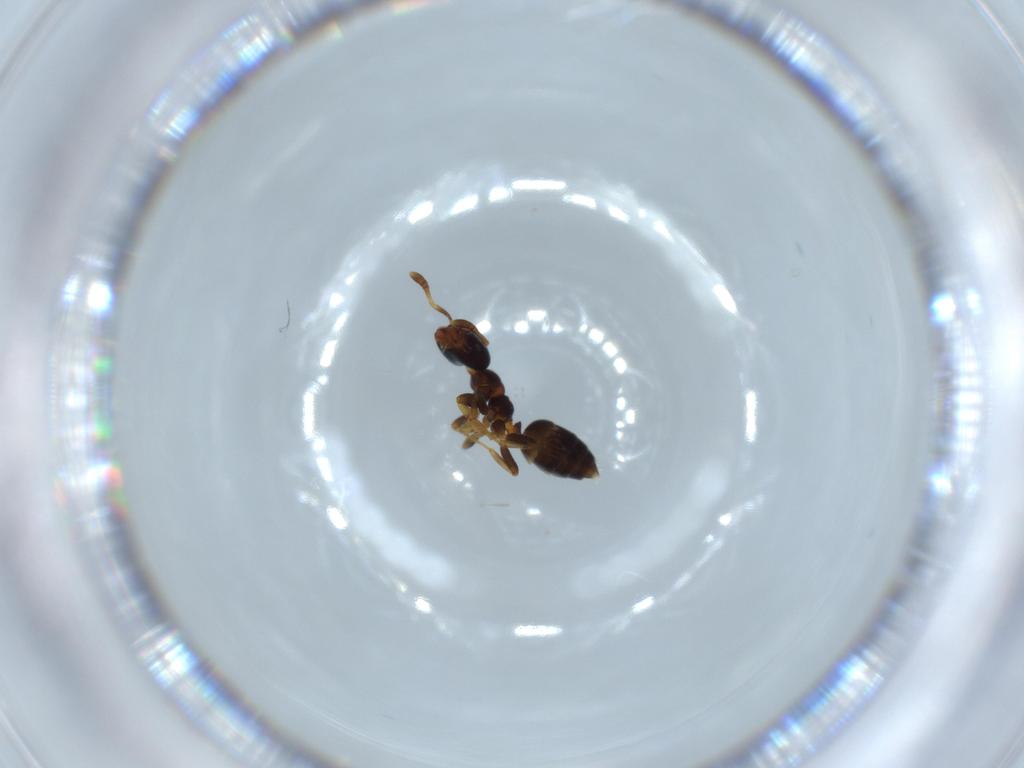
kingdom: Animalia
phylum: Arthropoda
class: Insecta
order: Hymenoptera
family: Formicidae
